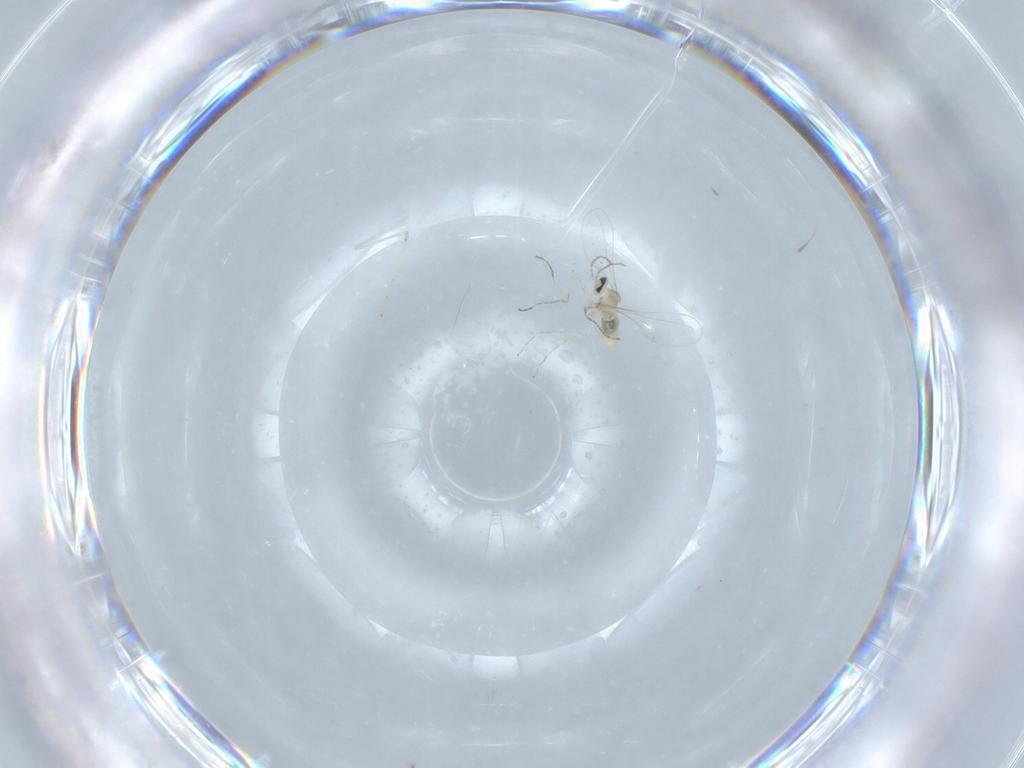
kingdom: Animalia
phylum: Arthropoda
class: Insecta
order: Diptera
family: Cecidomyiidae
